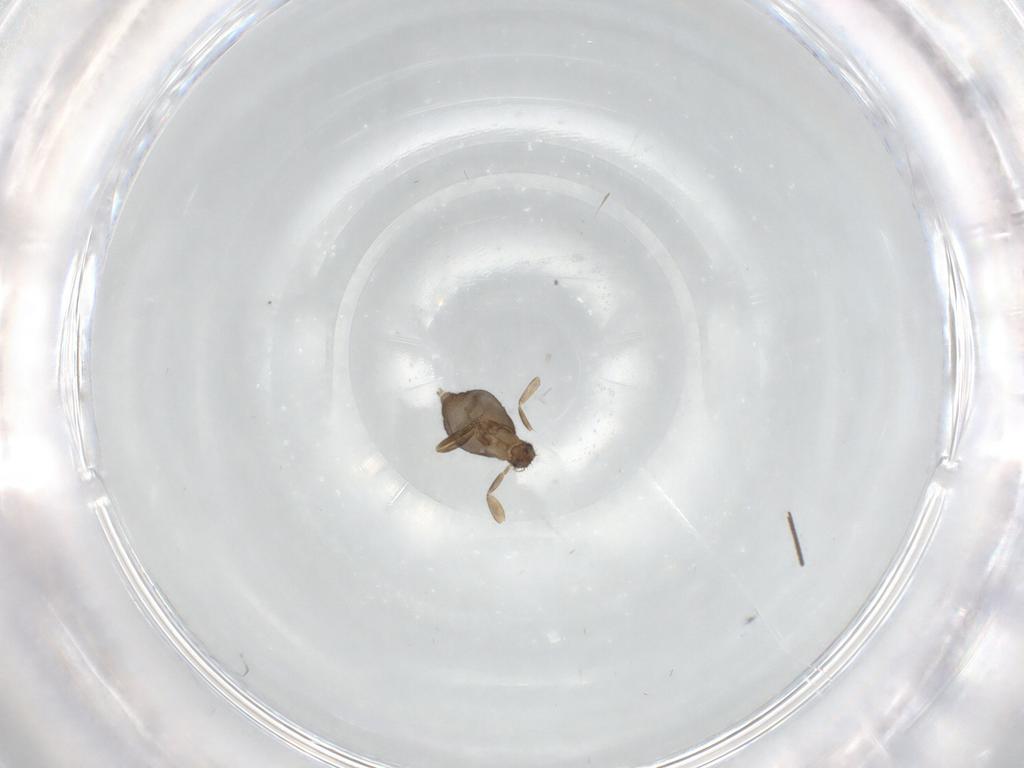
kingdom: Animalia
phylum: Arthropoda
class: Insecta
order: Diptera
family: Phoridae
